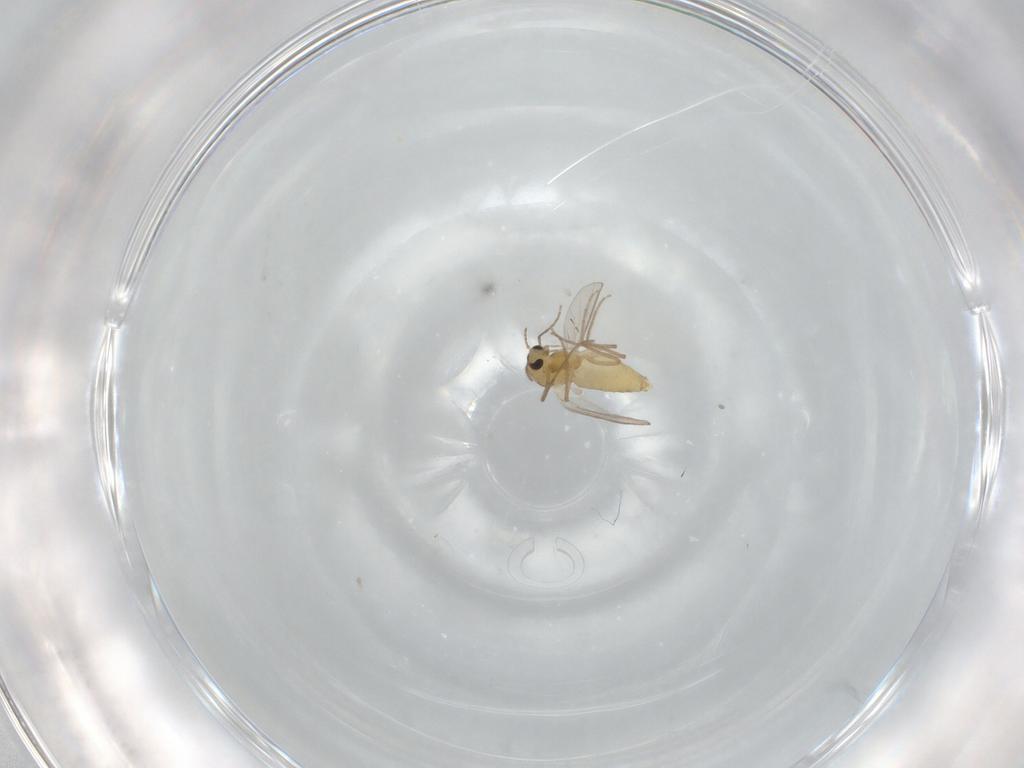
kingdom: Animalia
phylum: Arthropoda
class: Insecta
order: Diptera
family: Chironomidae
